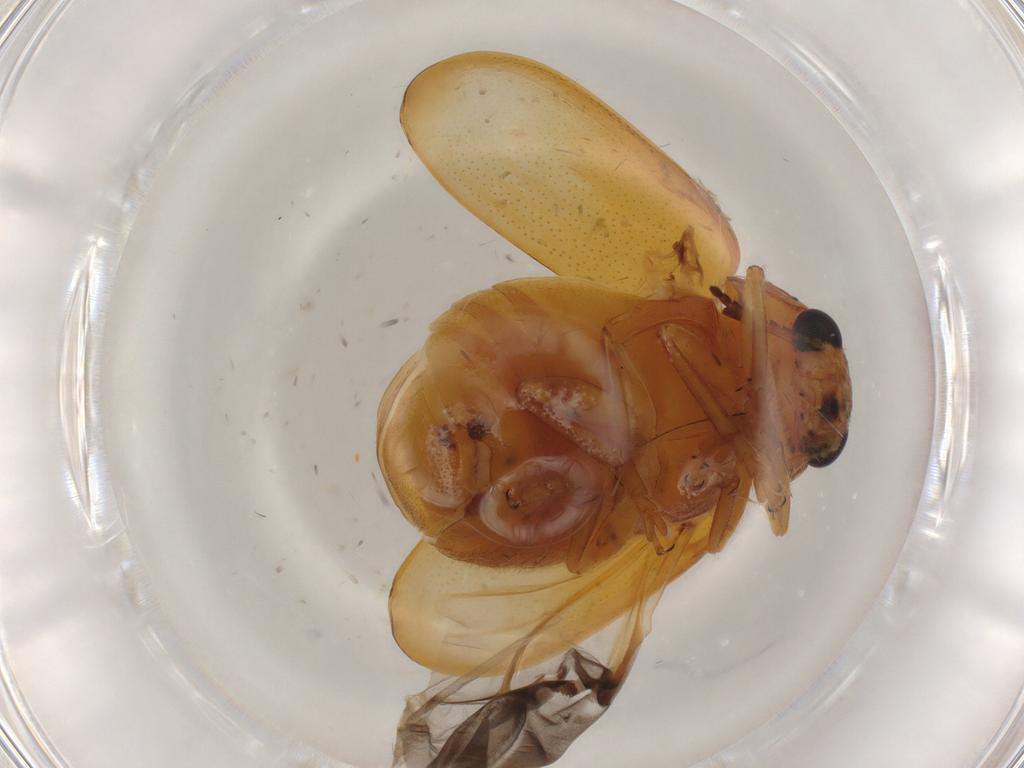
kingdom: Animalia
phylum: Arthropoda
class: Insecta
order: Coleoptera
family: Chrysomelidae
